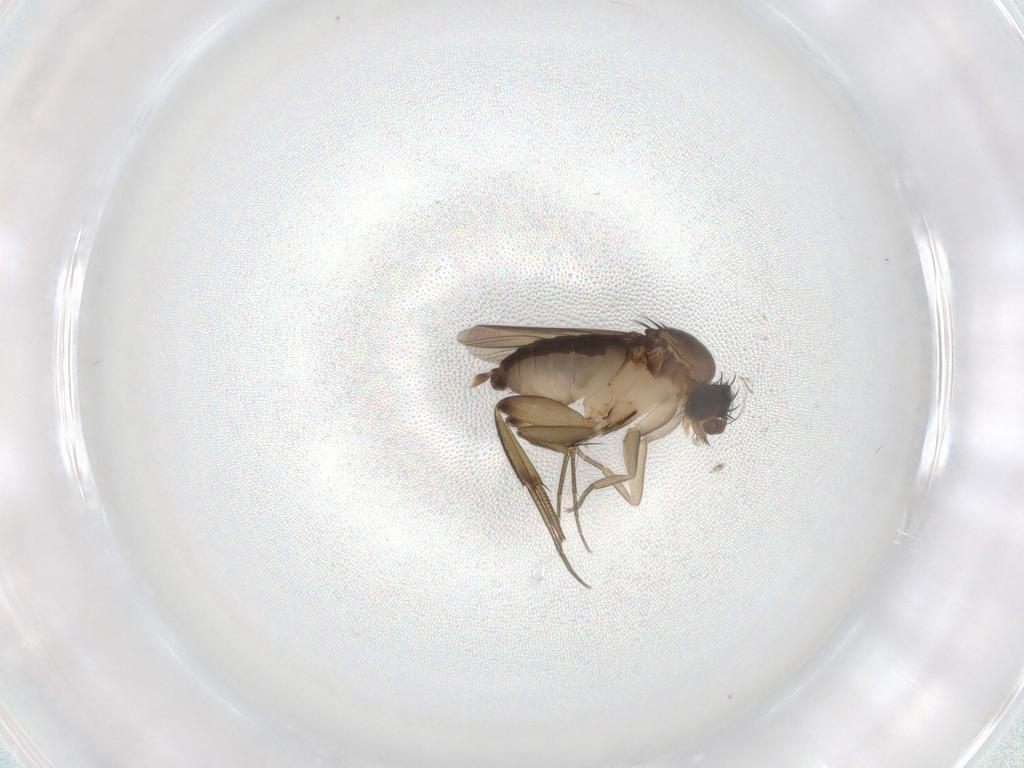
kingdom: Animalia
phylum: Arthropoda
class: Insecta
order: Diptera
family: Phoridae
